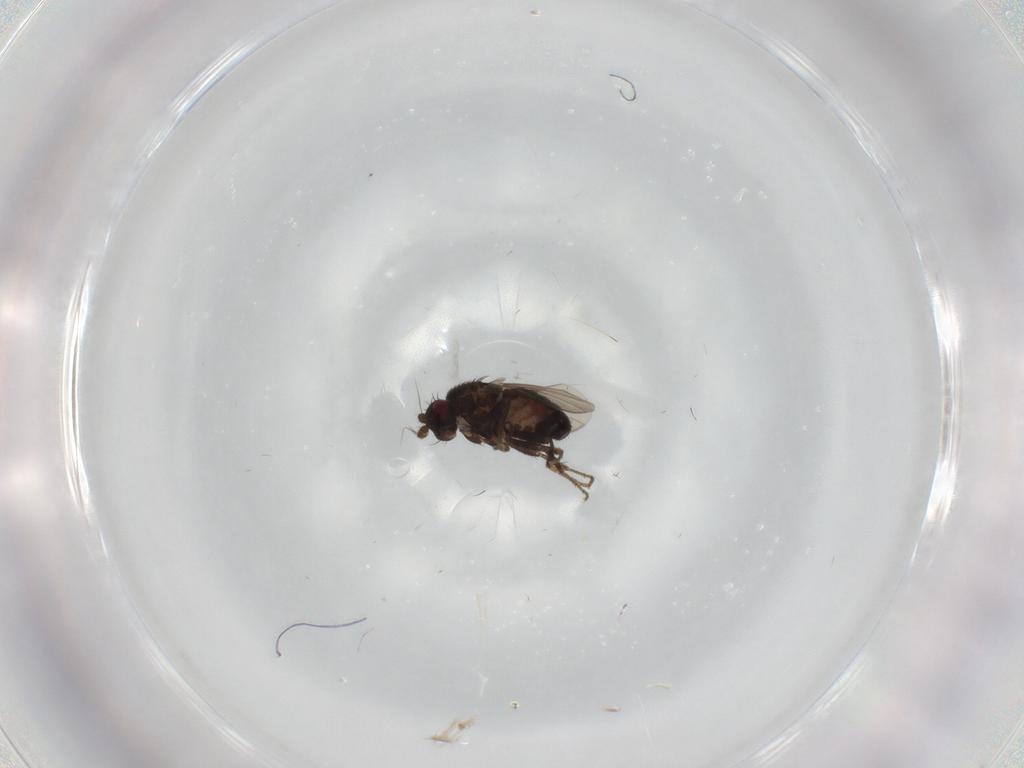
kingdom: Animalia
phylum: Arthropoda
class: Insecta
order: Diptera
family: Sphaeroceridae
